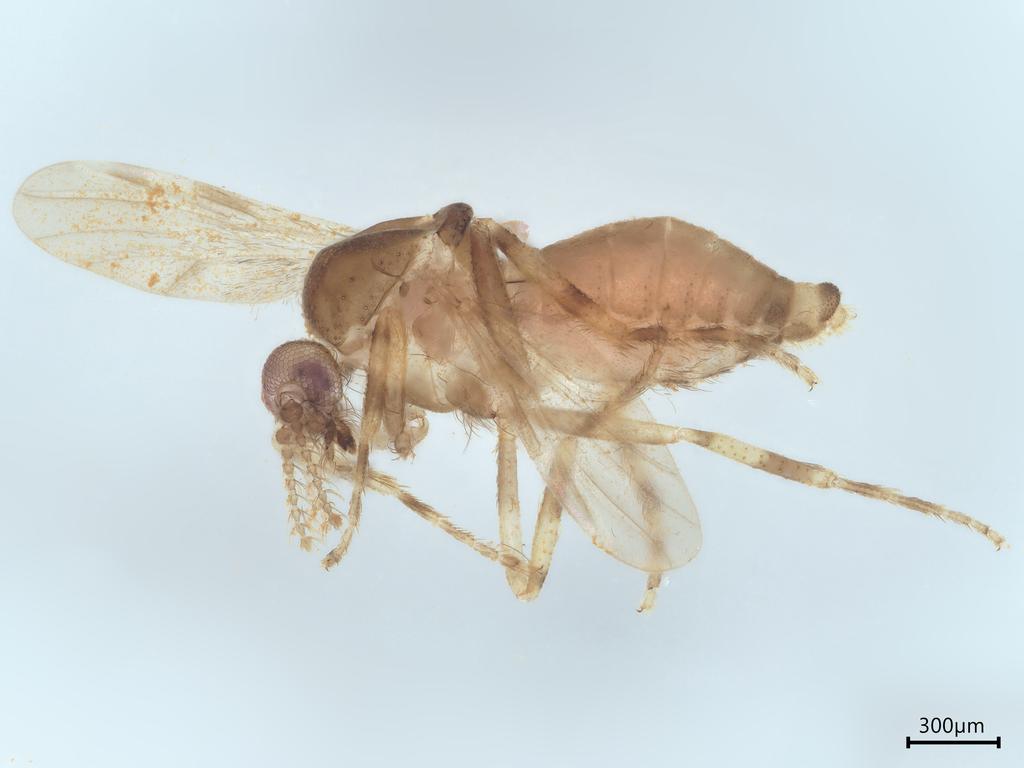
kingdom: Animalia
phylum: Arthropoda
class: Insecta
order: Diptera
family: Ceratopogonidae
